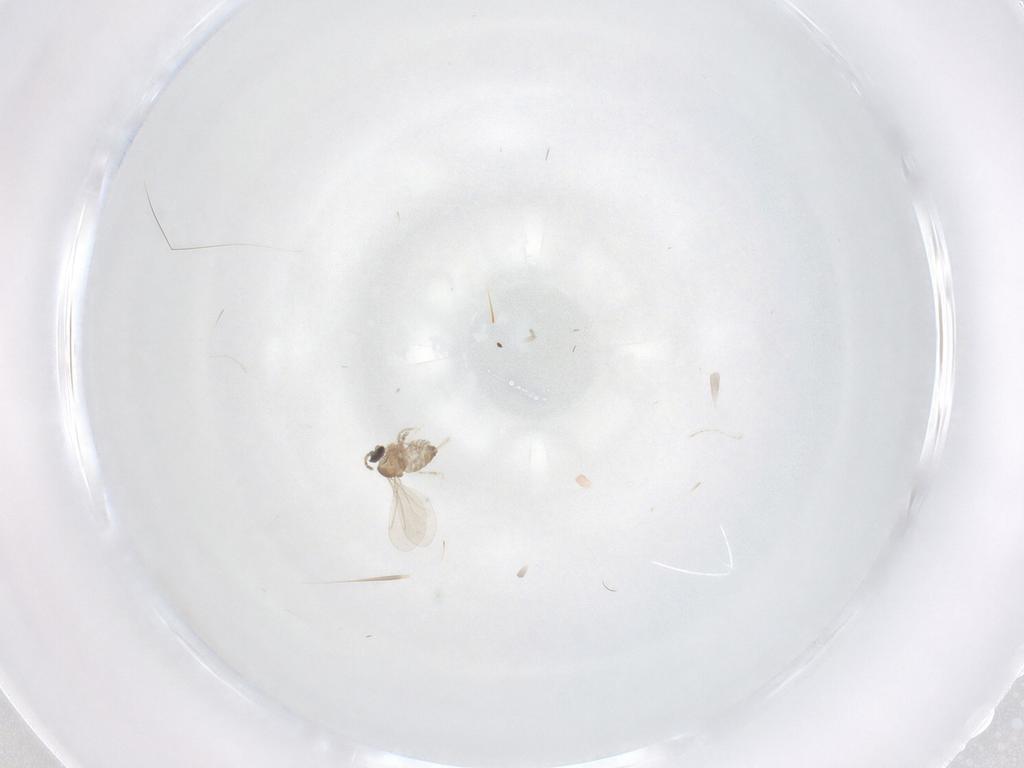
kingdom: Animalia
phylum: Arthropoda
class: Insecta
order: Diptera
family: Cecidomyiidae
